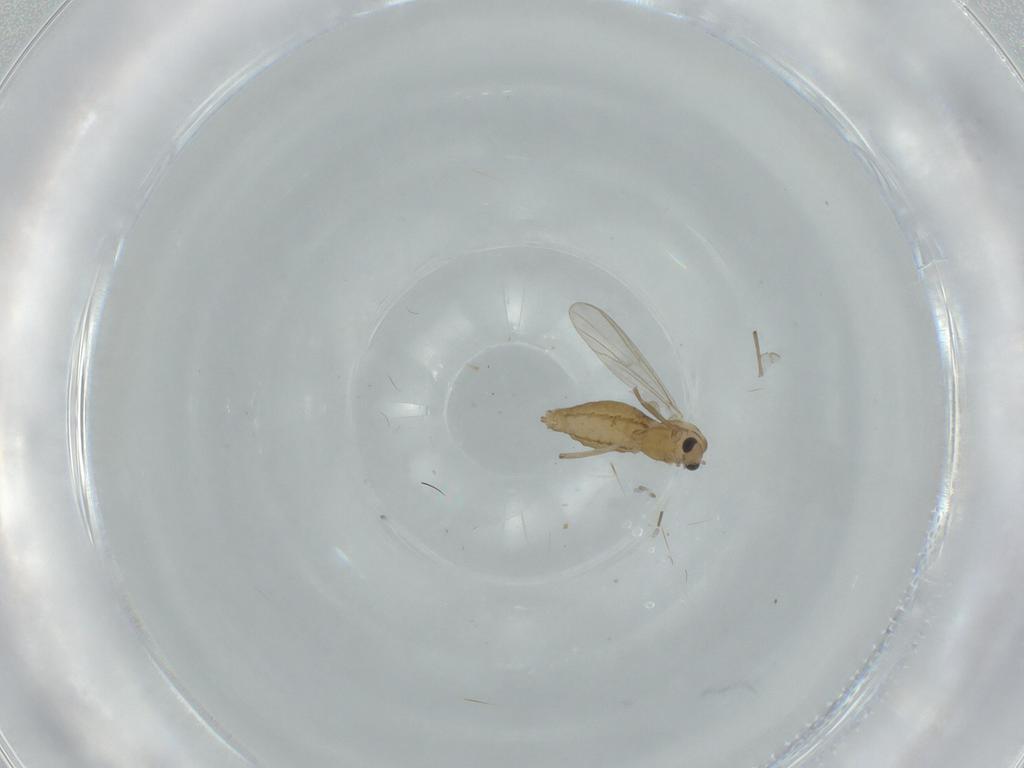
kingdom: Animalia
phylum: Arthropoda
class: Insecta
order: Diptera
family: Chironomidae
